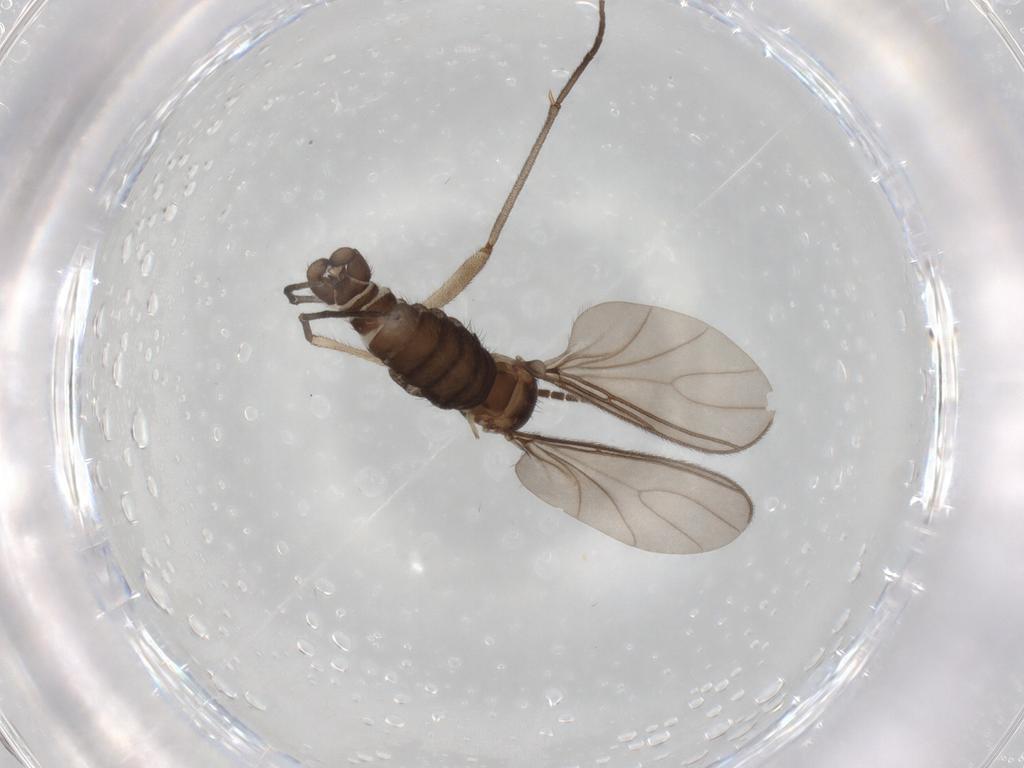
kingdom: Animalia
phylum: Arthropoda
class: Insecta
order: Diptera
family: Sciaridae
